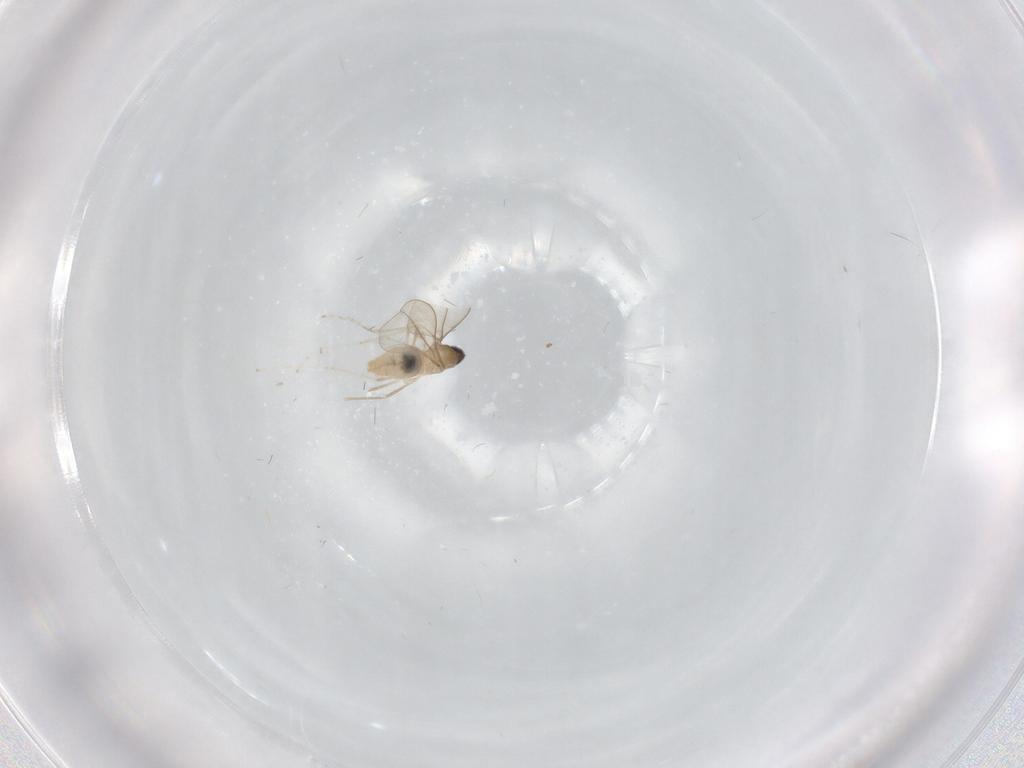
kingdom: Animalia
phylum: Arthropoda
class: Insecta
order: Diptera
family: Cecidomyiidae
